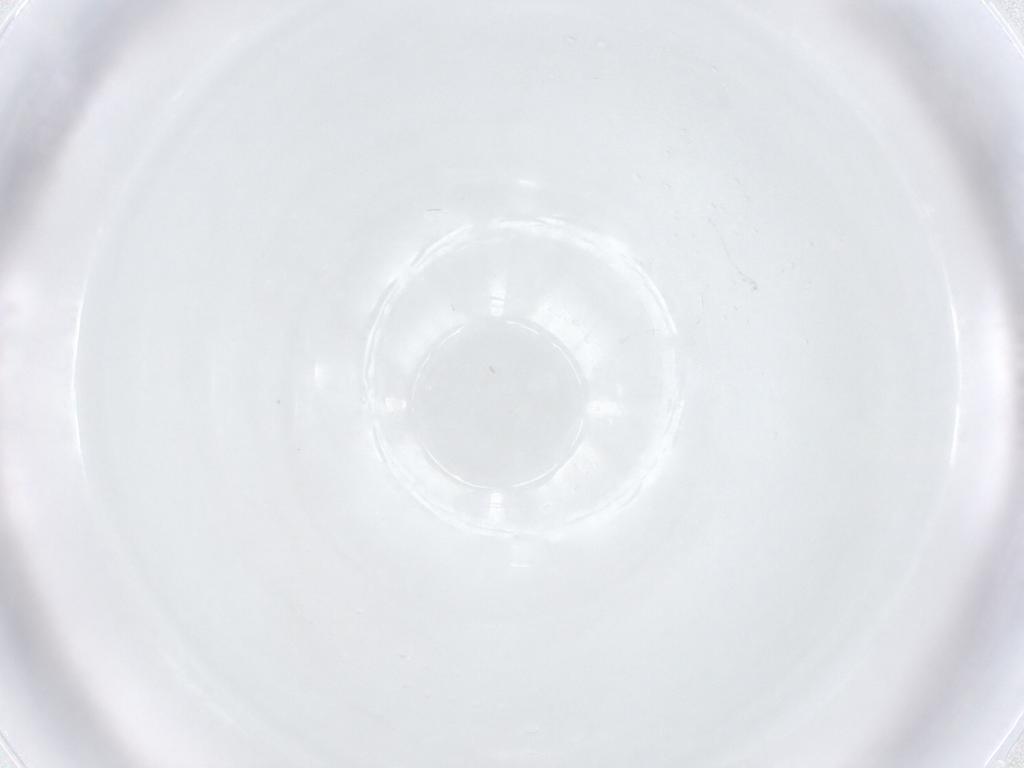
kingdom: Animalia
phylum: Arthropoda
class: Arachnida
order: Sarcoptiformes
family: Brachychthoniidae
